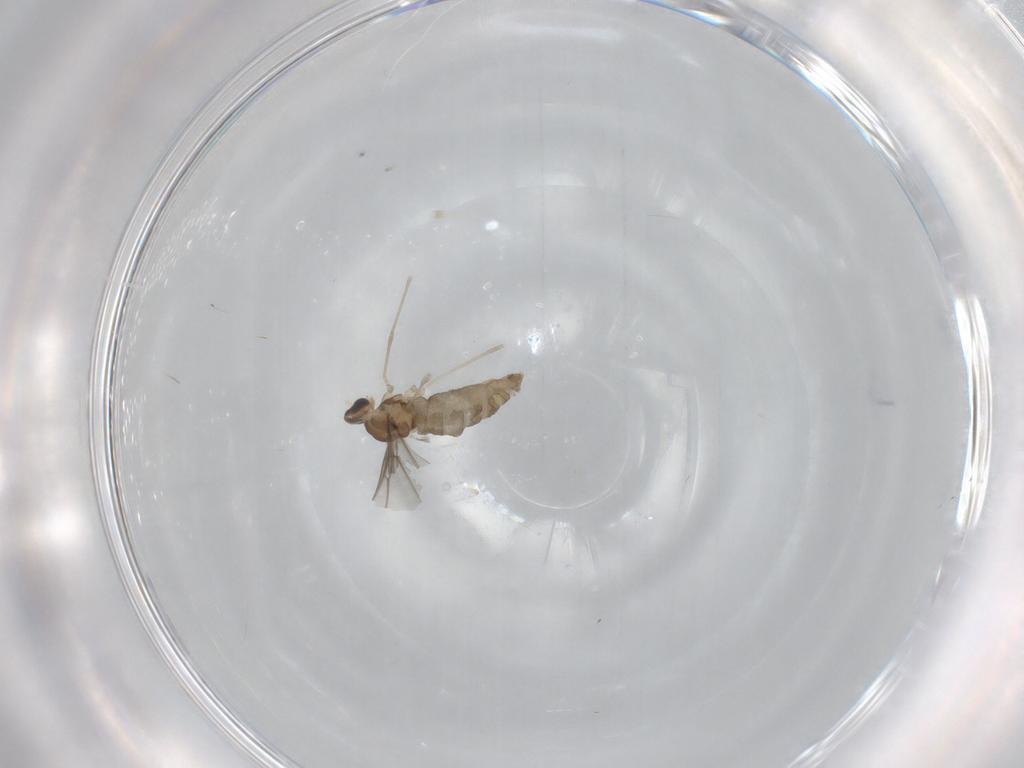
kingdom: Animalia
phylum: Arthropoda
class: Insecta
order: Diptera
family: Cecidomyiidae
